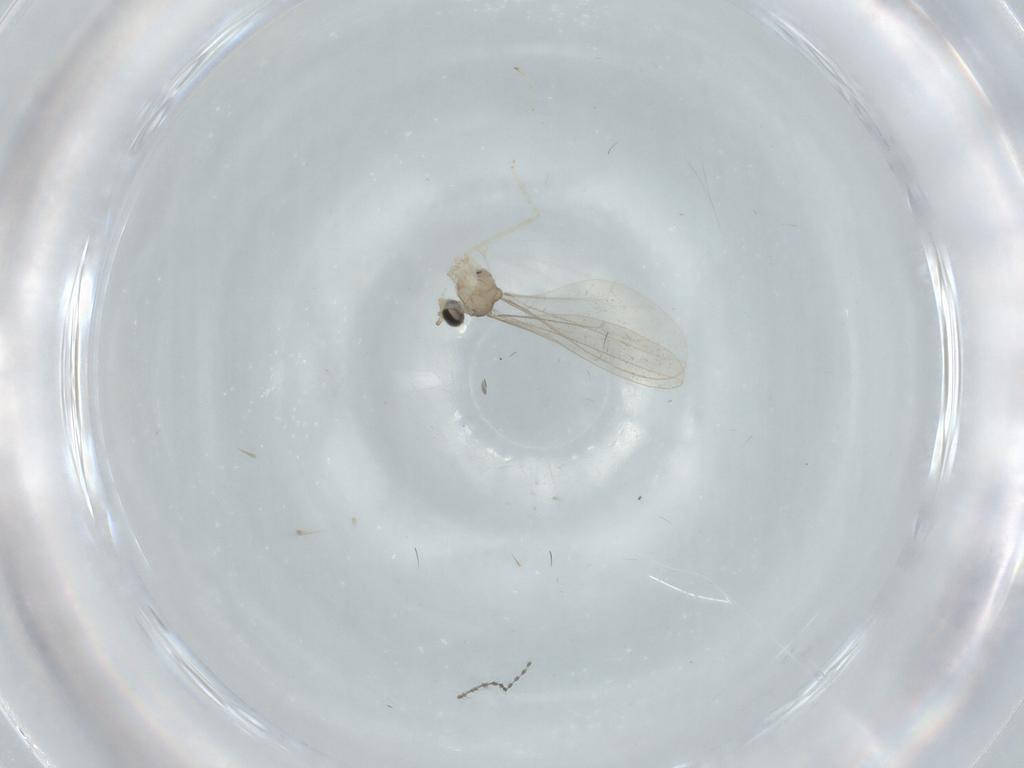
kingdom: Animalia
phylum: Arthropoda
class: Insecta
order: Diptera
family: Cecidomyiidae
